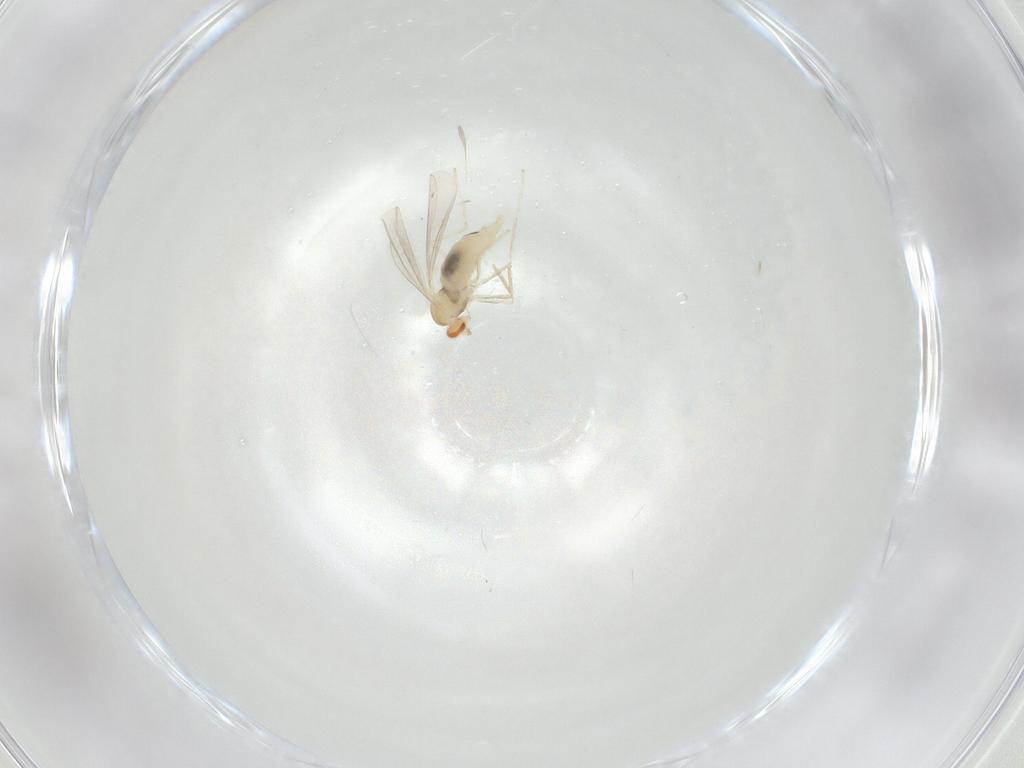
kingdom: Animalia
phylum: Arthropoda
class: Insecta
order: Diptera
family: Cecidomyiidae
